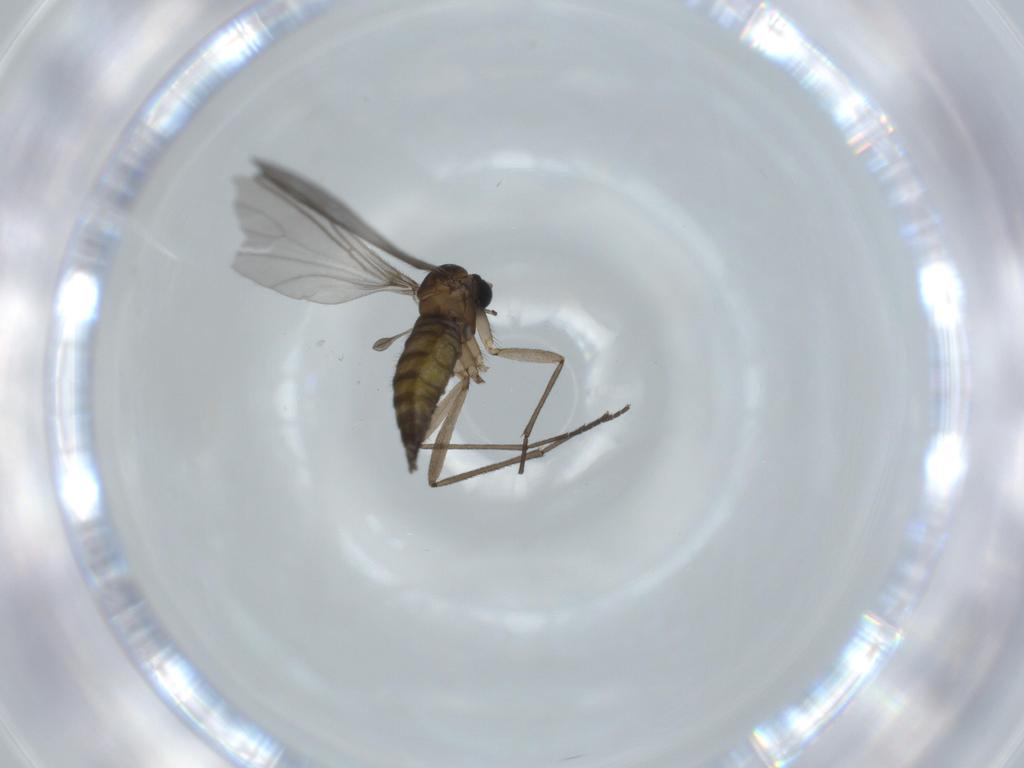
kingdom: Animalia
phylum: Arthropoda
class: Insecta
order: Diptera
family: Sciaridae
